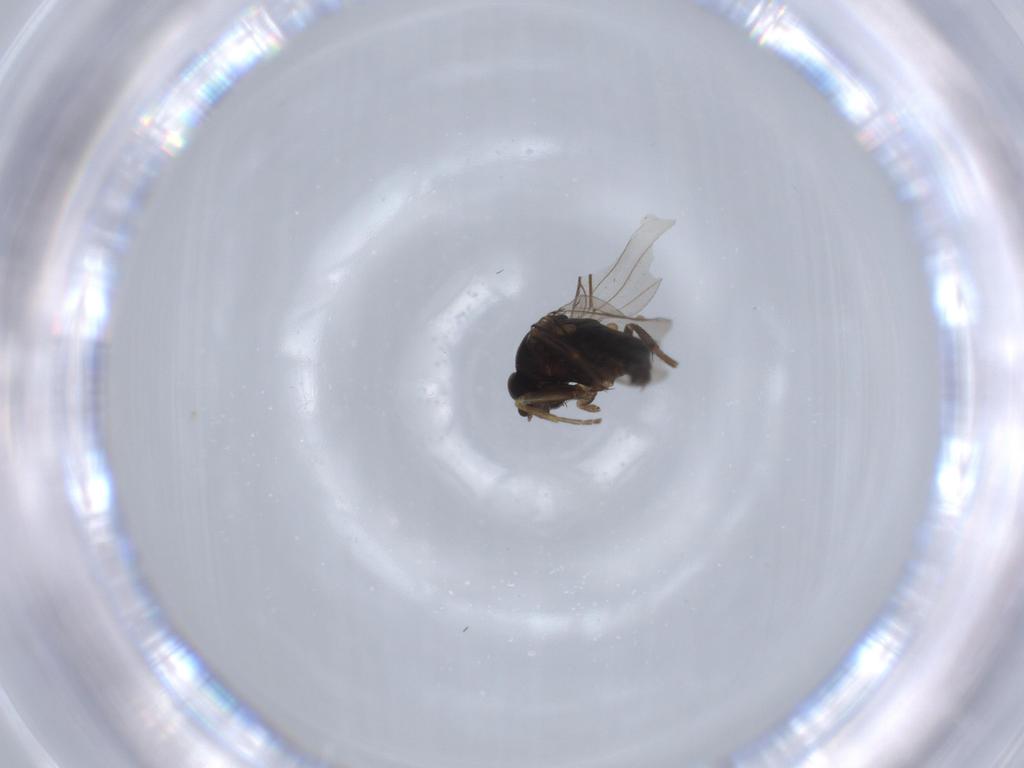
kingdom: Animalia
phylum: Arthropoda
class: Insecta
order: Diptera
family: Phoridae
